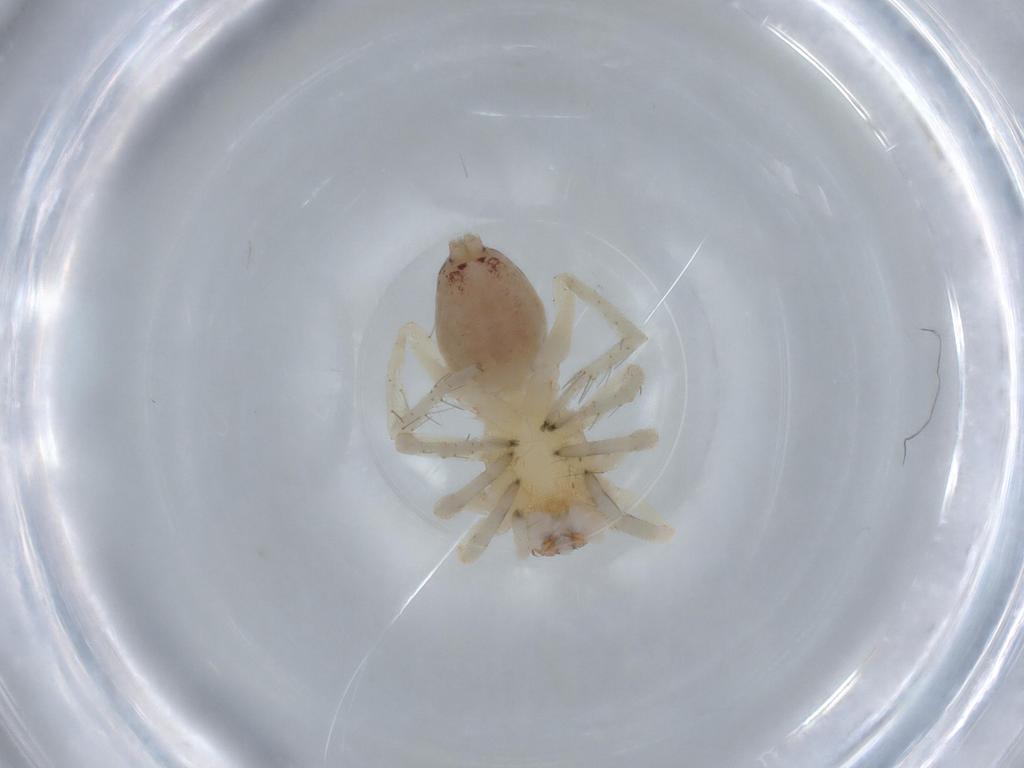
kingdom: Animalia
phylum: Arthropoda
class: Arachnida
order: Araneae
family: Clubionidae
